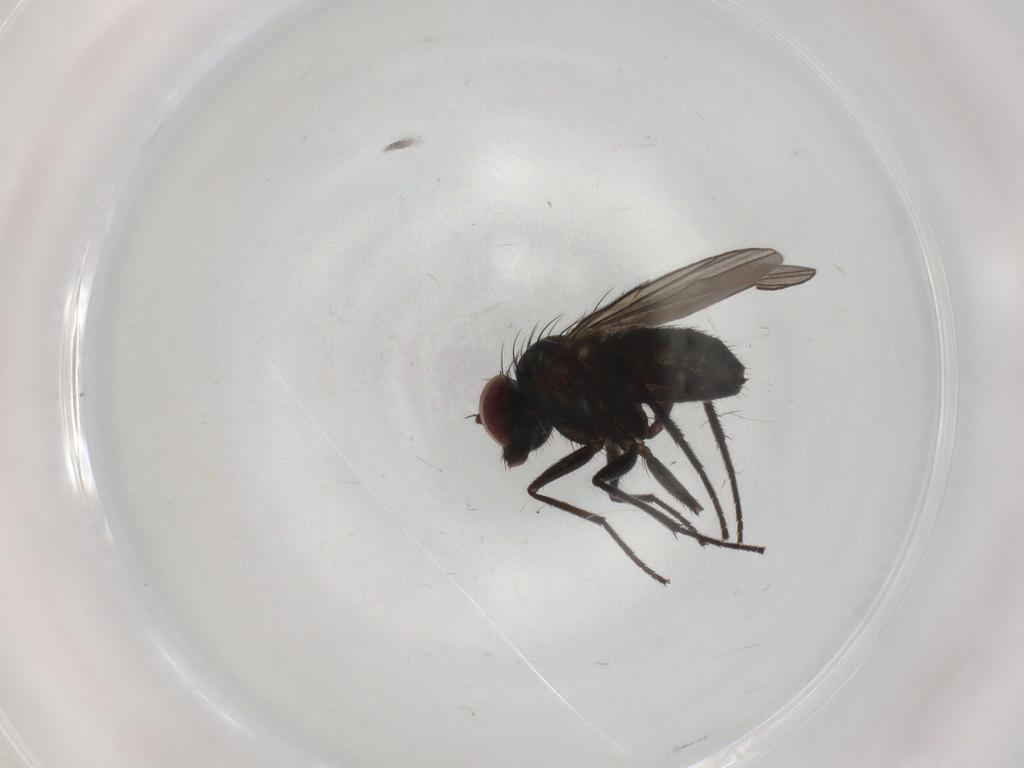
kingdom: Animalia
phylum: Arthropoda
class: Insecta
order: Diptera
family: Dolichopodidae
